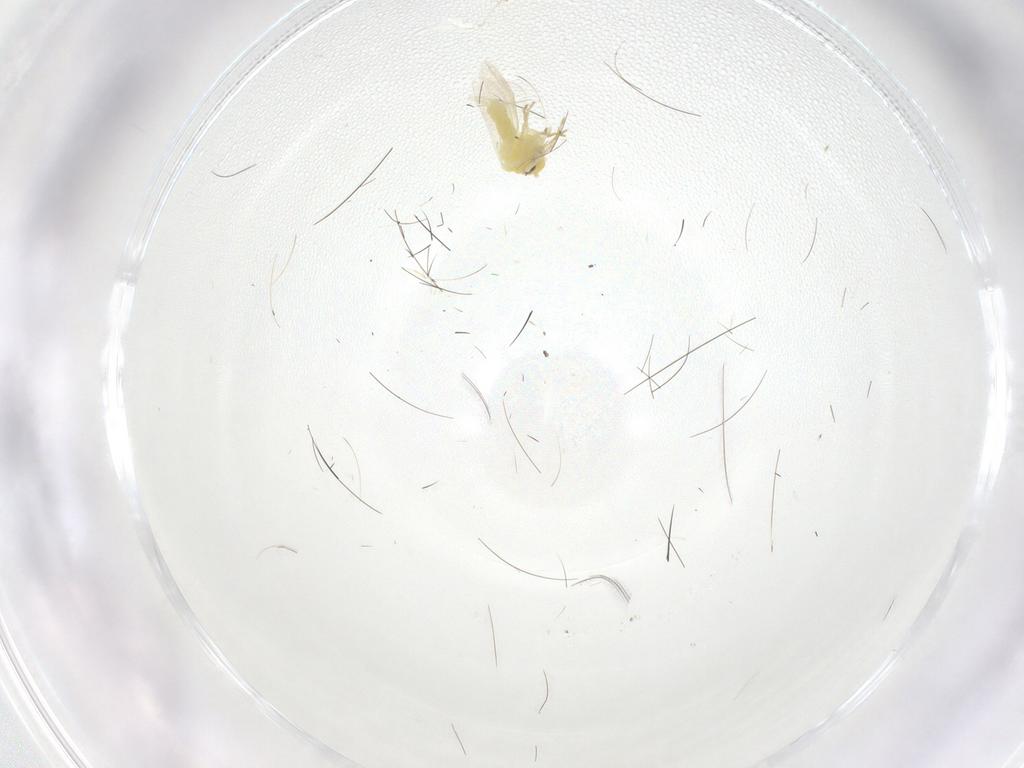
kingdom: Animalia
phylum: Arthropoda
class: Insecta
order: Hemiptera
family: Aleyrodidae
